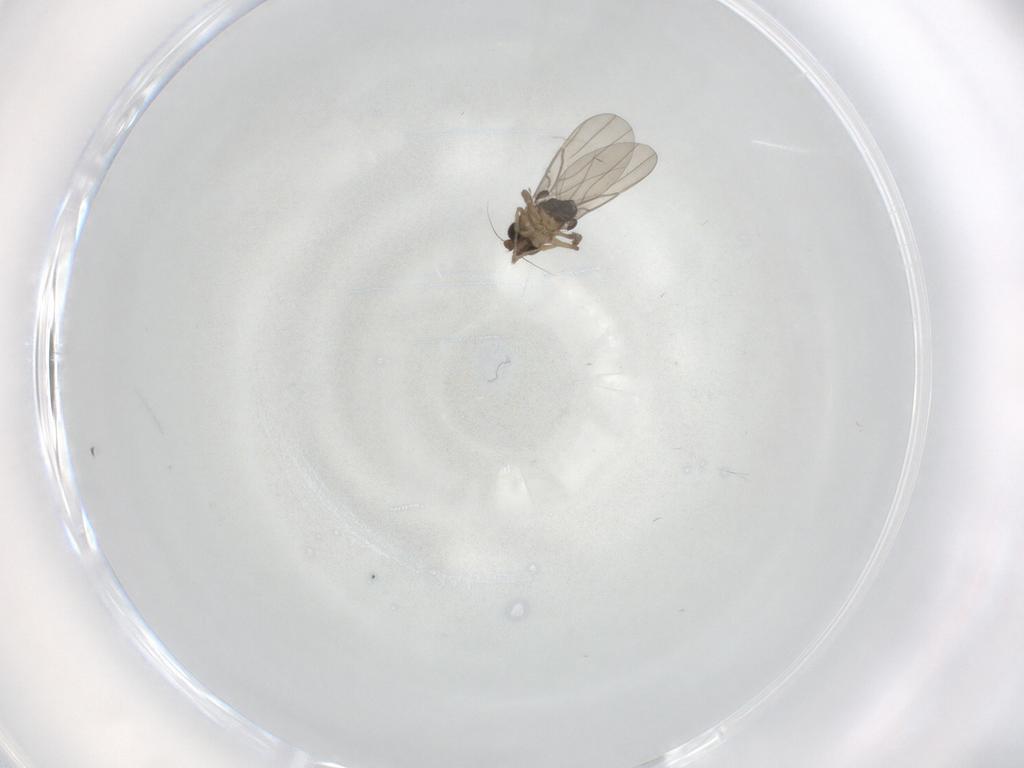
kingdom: Animalia
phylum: Arthropoda
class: Insecta
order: Diptera
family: Phoridae
